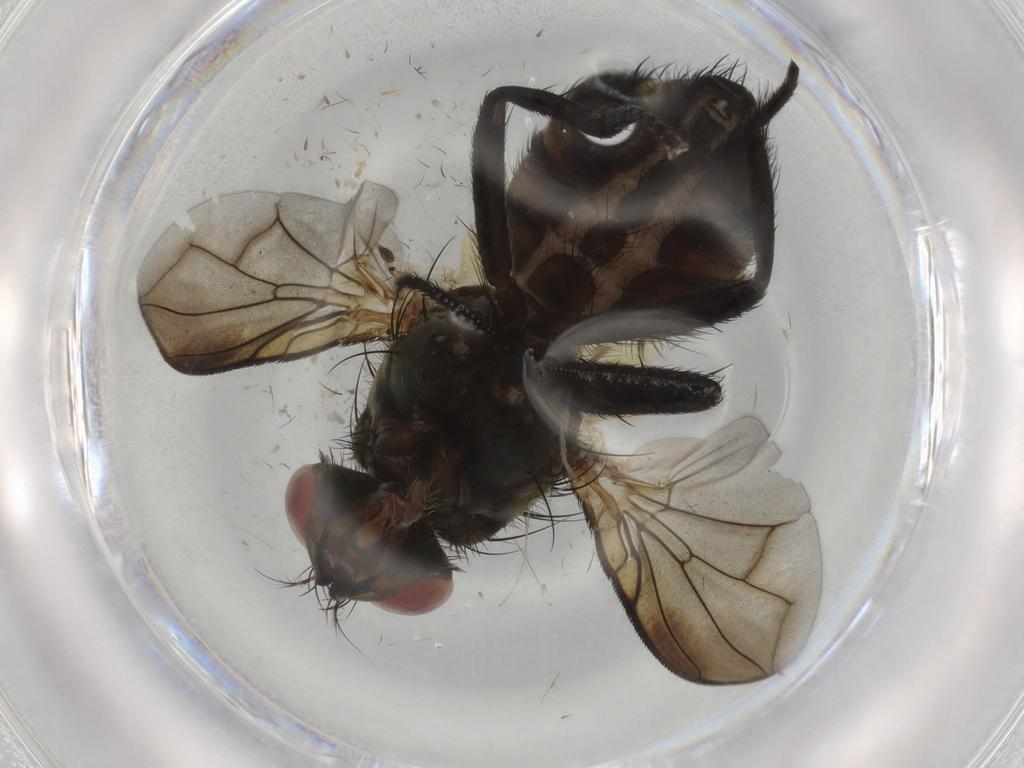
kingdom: Animalia
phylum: Arthropoda
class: Insecta
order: Diptera
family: Sarcophagidae
